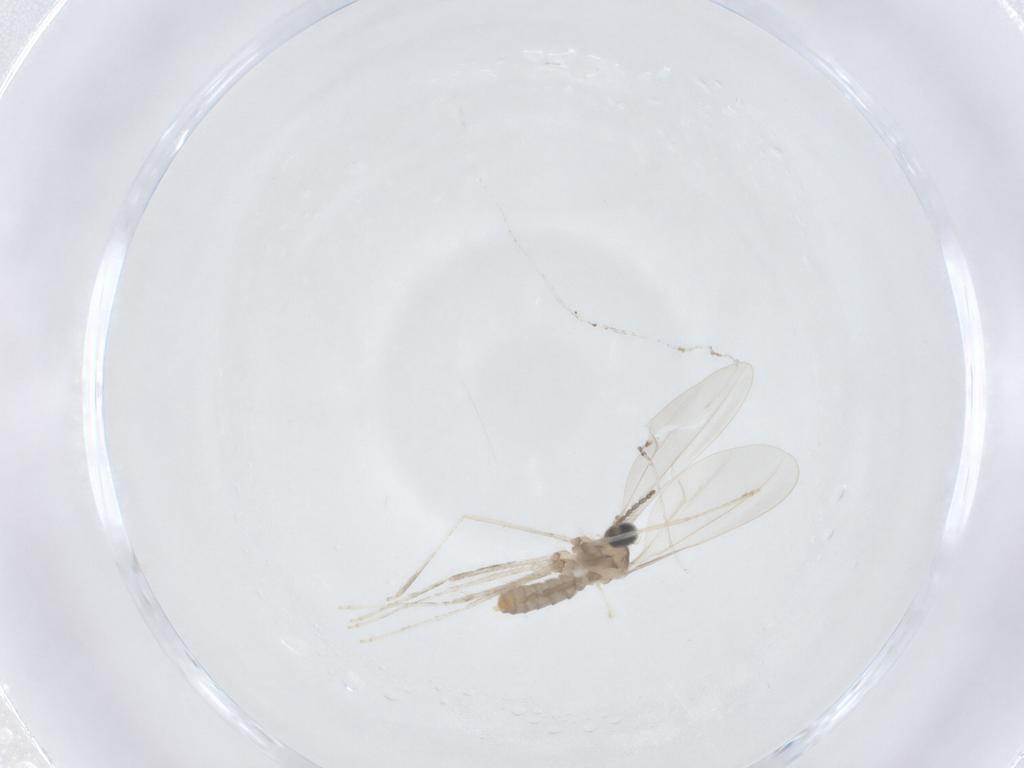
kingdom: Animalia
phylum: Arthropoda
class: Insecta
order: Diptera
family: Cecidomyiidae
